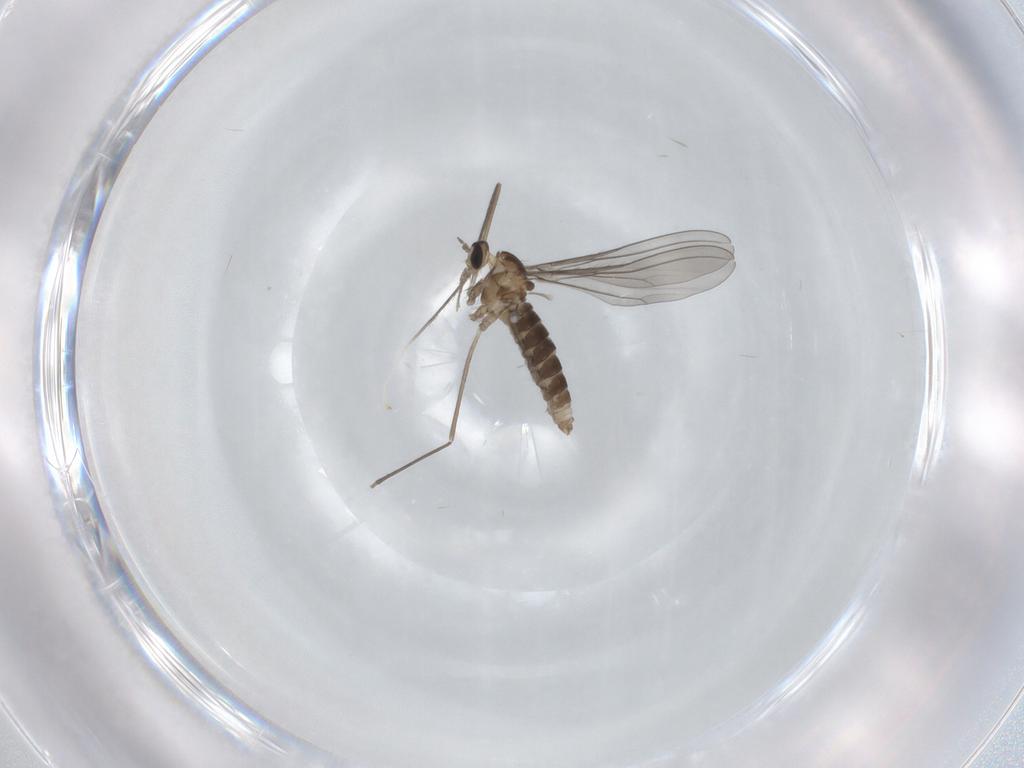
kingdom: Animalia
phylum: Arthropoda
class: Insecta
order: Diptera
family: Cecidomyiidae
